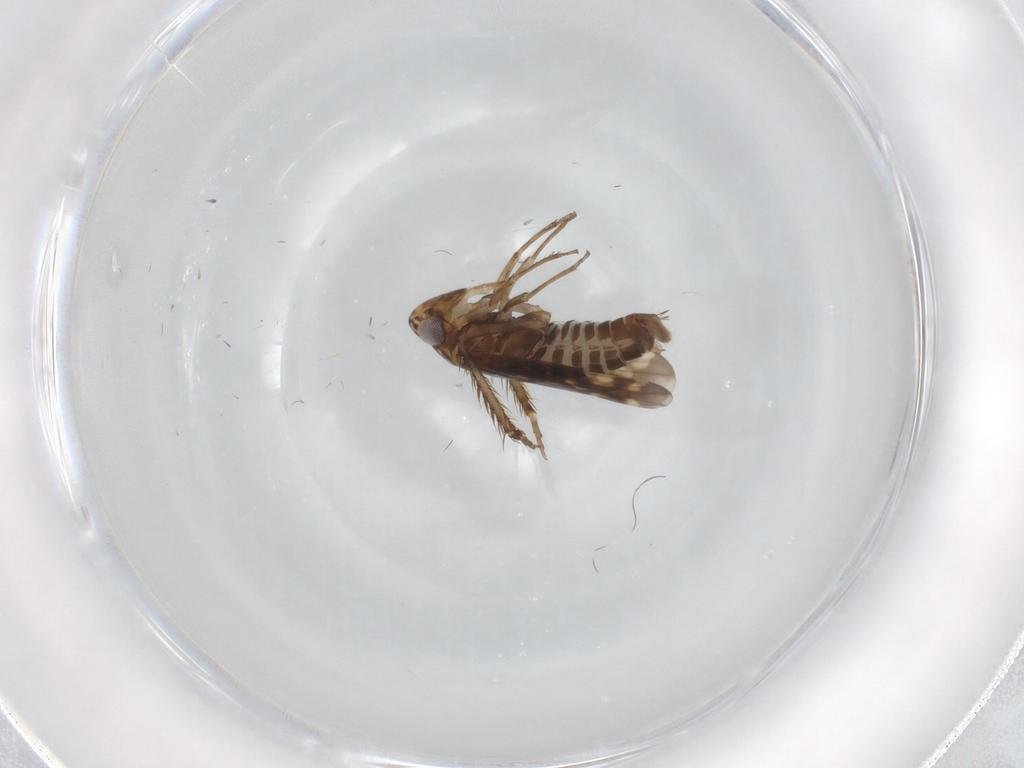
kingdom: Animalia
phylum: Arthropoda
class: Insecta
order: Hemiptera
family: Cicadellidae
